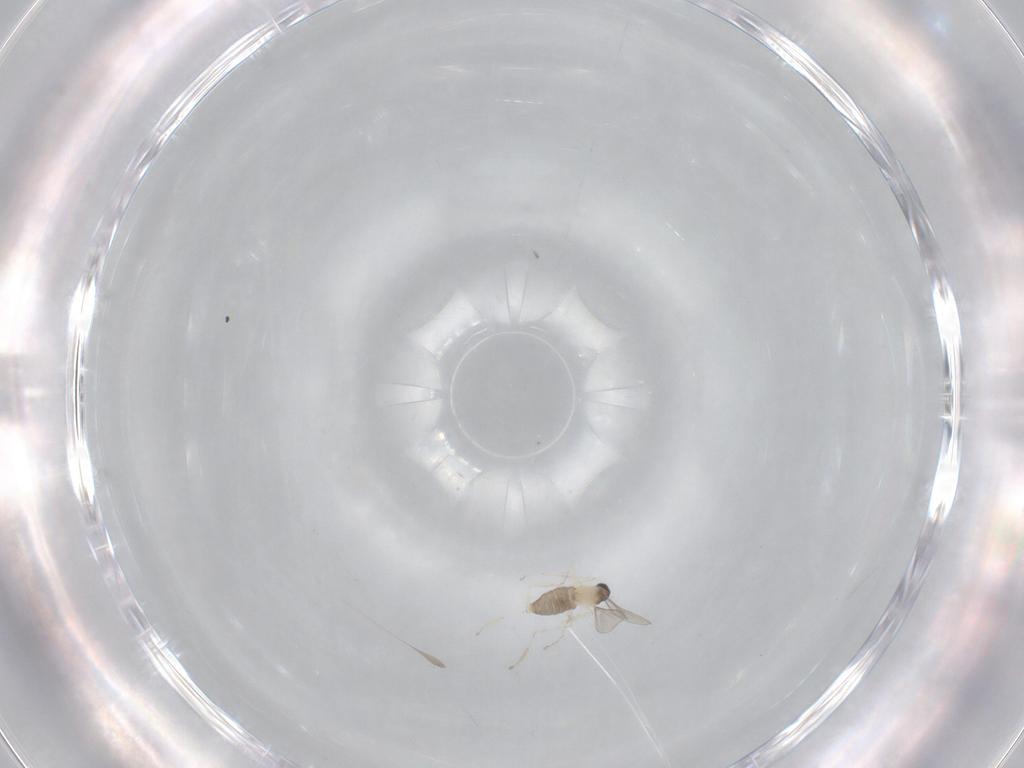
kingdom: Animalia
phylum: Arthropoda
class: Insecta
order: Diptera
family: Cecidomyiidae
